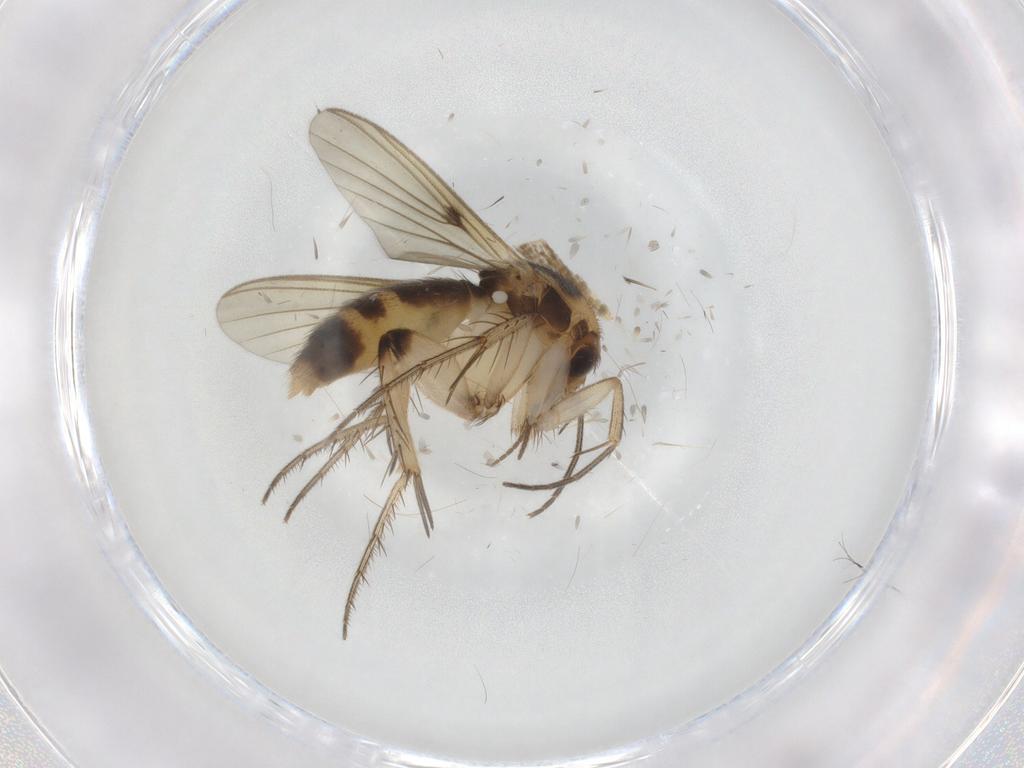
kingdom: Animalia
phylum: Arthropoda
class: Insecta
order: Diptera
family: Mycetophilidae
